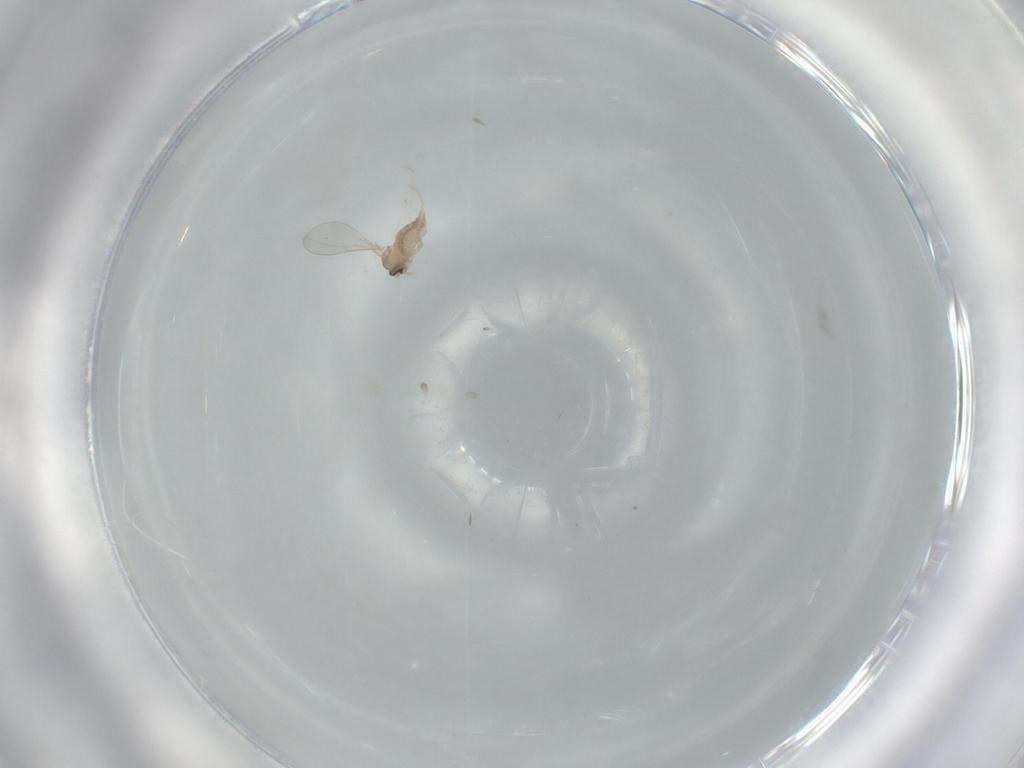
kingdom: Animalia
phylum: Arthropoda
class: Insecta
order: Diptera
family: Cecidomyiidae
